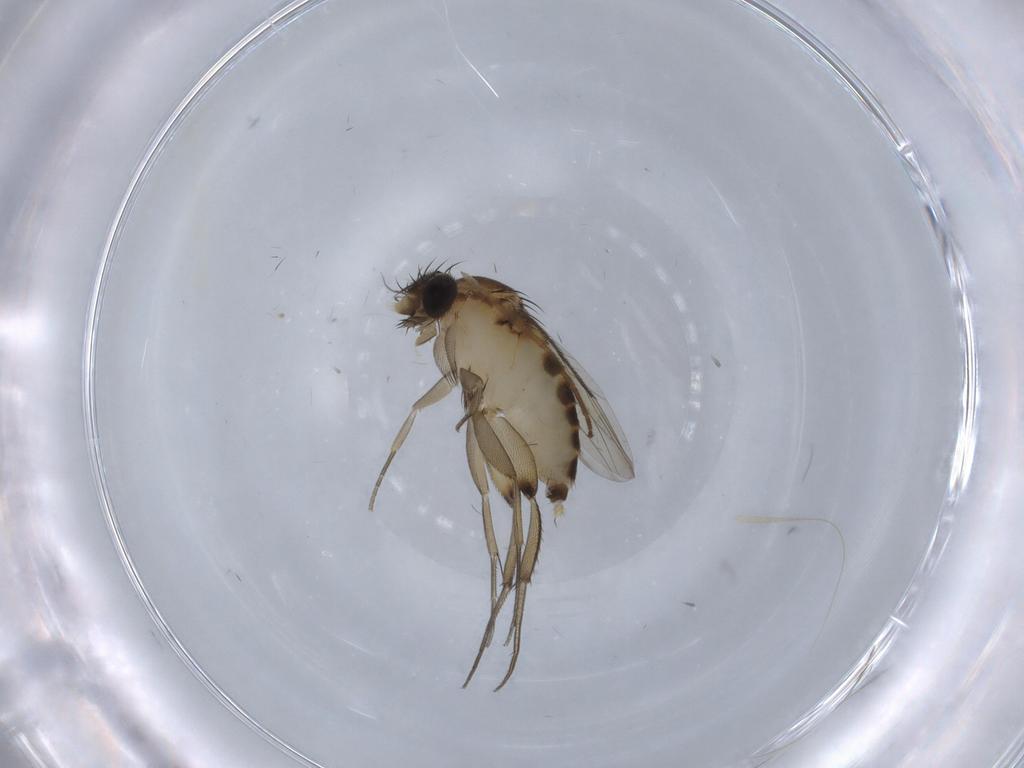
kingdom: Animalia
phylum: Arthropoda
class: Insecta
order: Diptera
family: Phoridae
